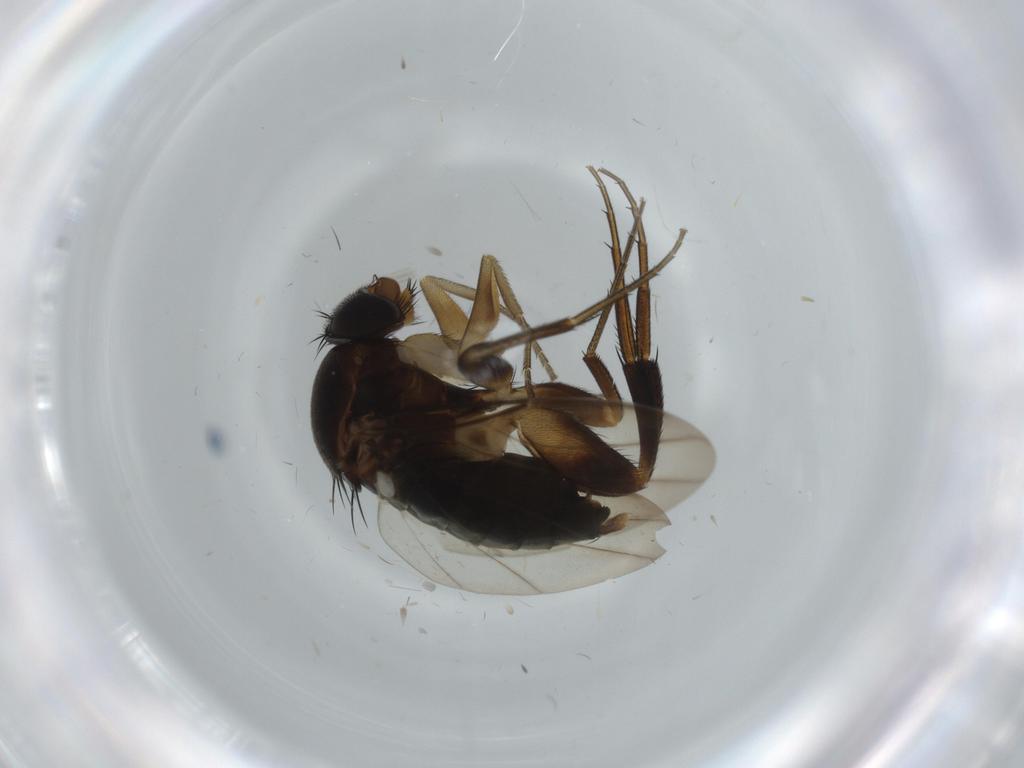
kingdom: Animalia
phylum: Arthropoda
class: Insecta
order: Diptera
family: Phoridae
